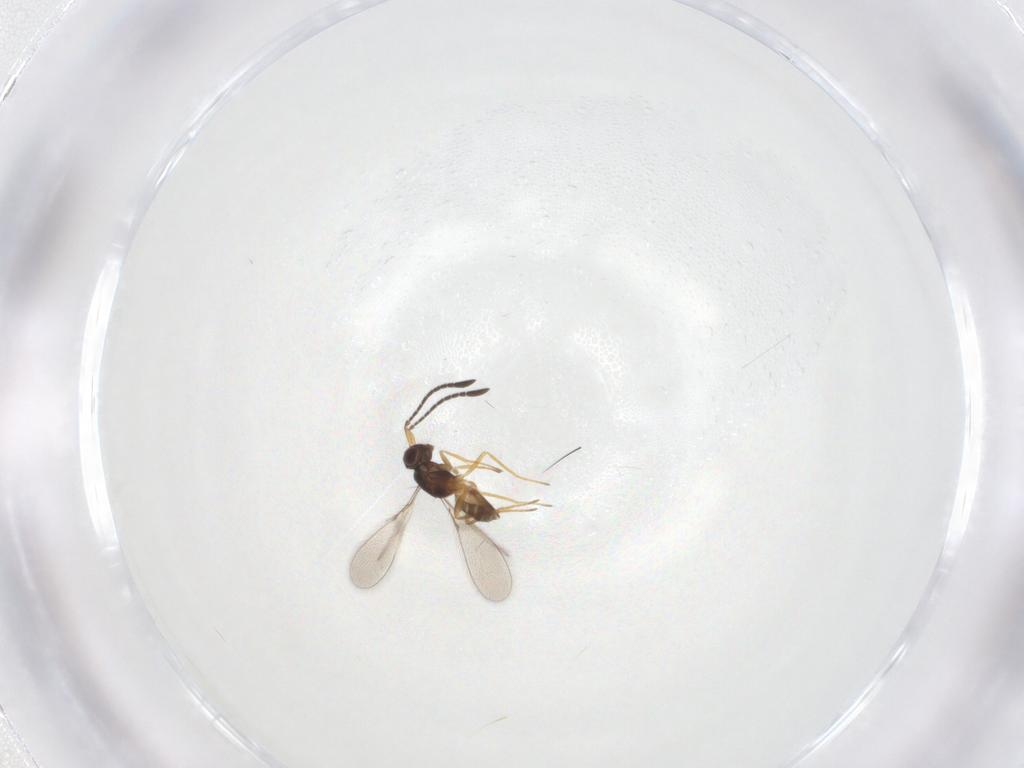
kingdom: Animalia
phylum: Arthropoda
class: Insecta
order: Hymenoptera
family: Mymaridae
